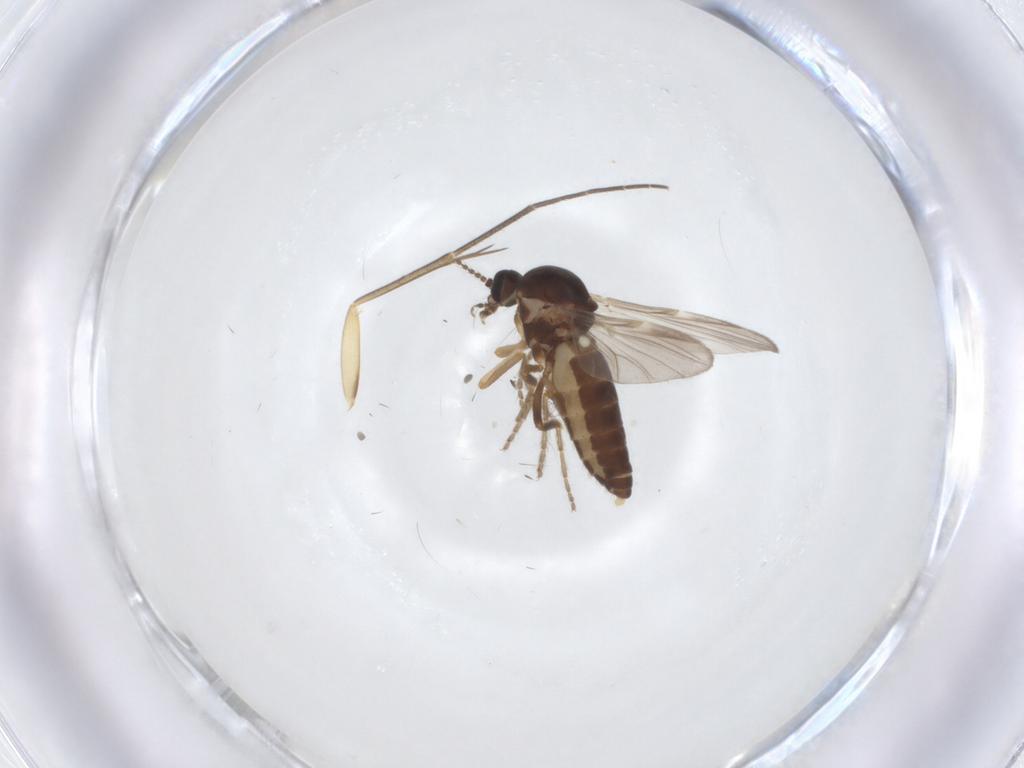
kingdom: Animalia
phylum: Arthropoda
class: Insecta
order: Diptera
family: Ceratopogonidae
